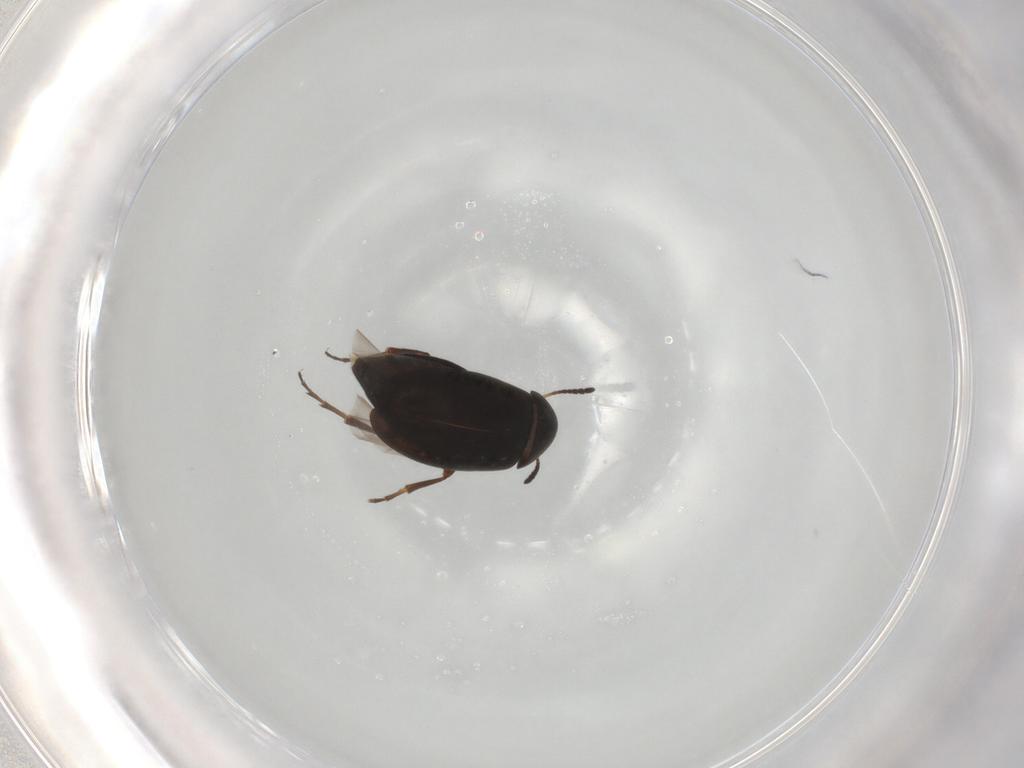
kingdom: Animalia
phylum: Arthropoda
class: Insecta
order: Coleoptera
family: Scraptiidae
